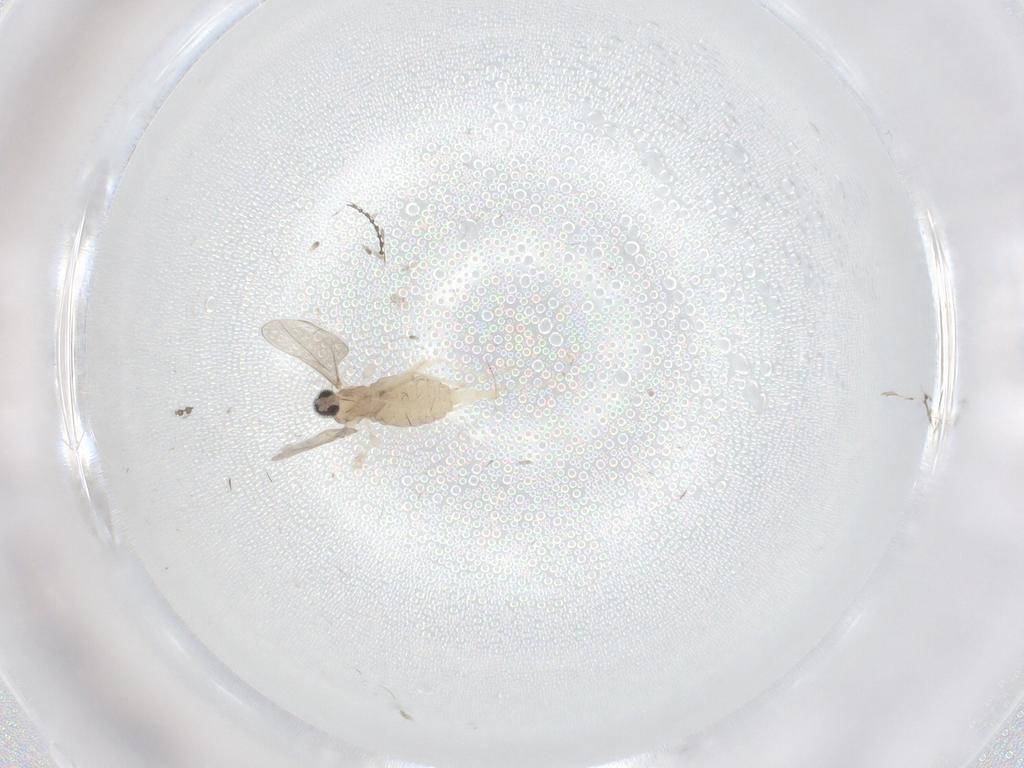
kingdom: Animalia
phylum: Arthropoda
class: Insecta
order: Diptera
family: Cecidomyiidae
